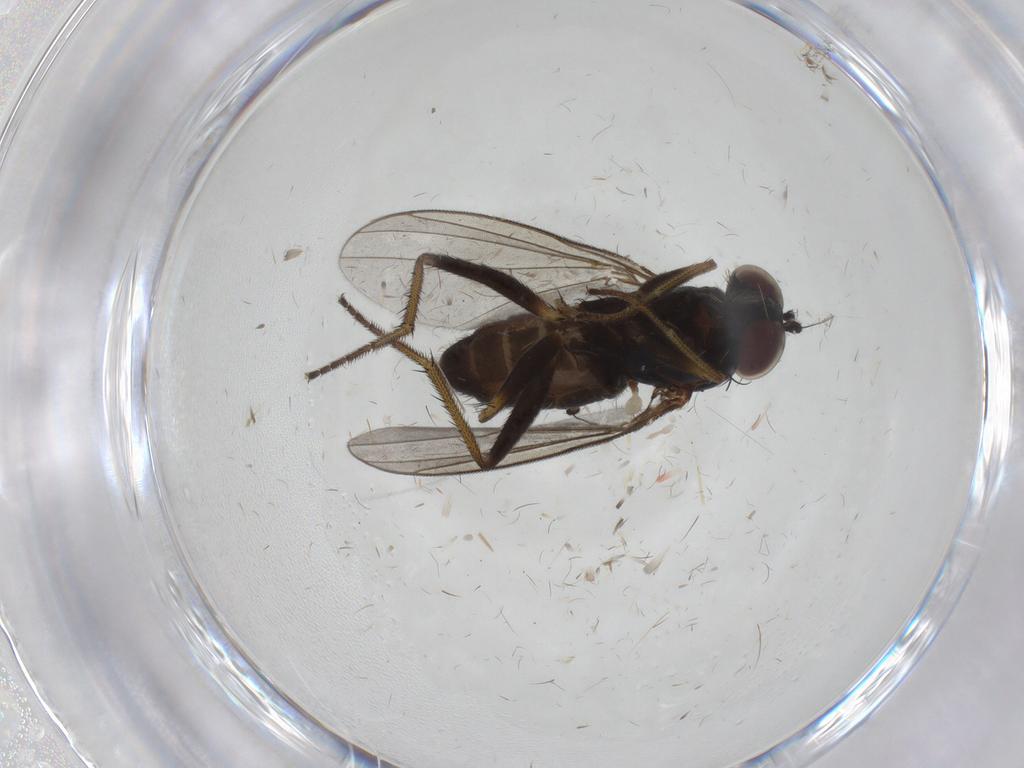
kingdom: Animalia
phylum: Arthropoda
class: Insecta
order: Diptera
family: Dolichopodidae
